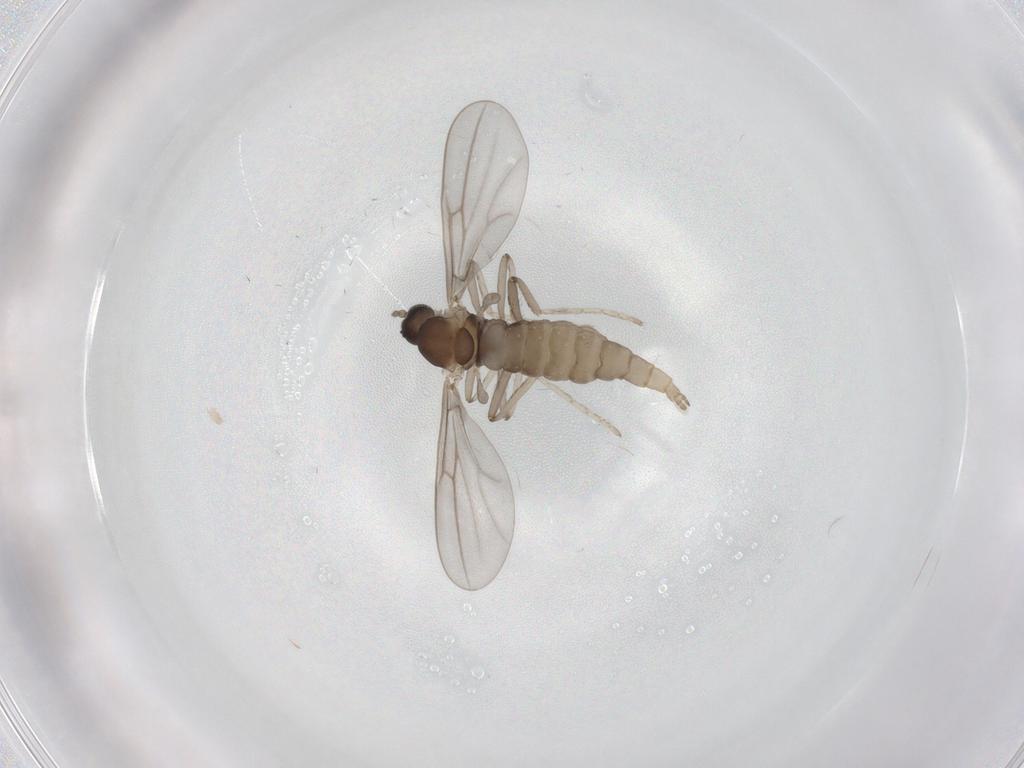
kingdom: Animalia
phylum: Arthropoda
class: Insecta
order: Diptera
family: Cecidomyiidae
